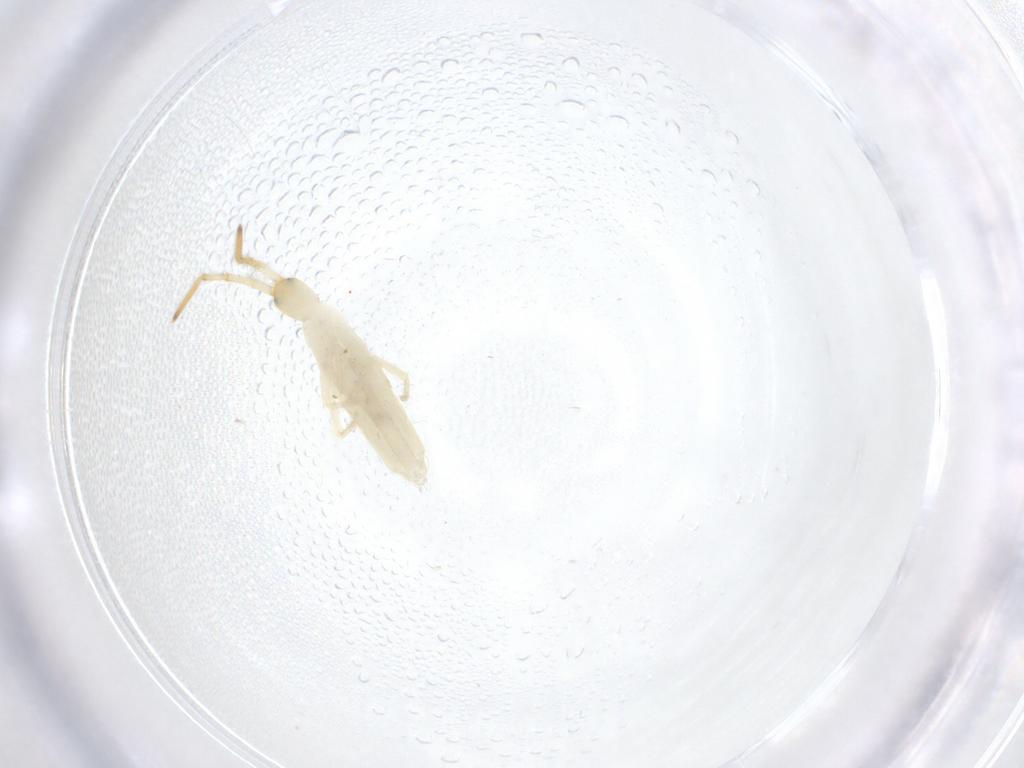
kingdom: Animalia
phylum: Arthropoda
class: Collembola
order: Entomobryomorpha
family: Entomobryidae
